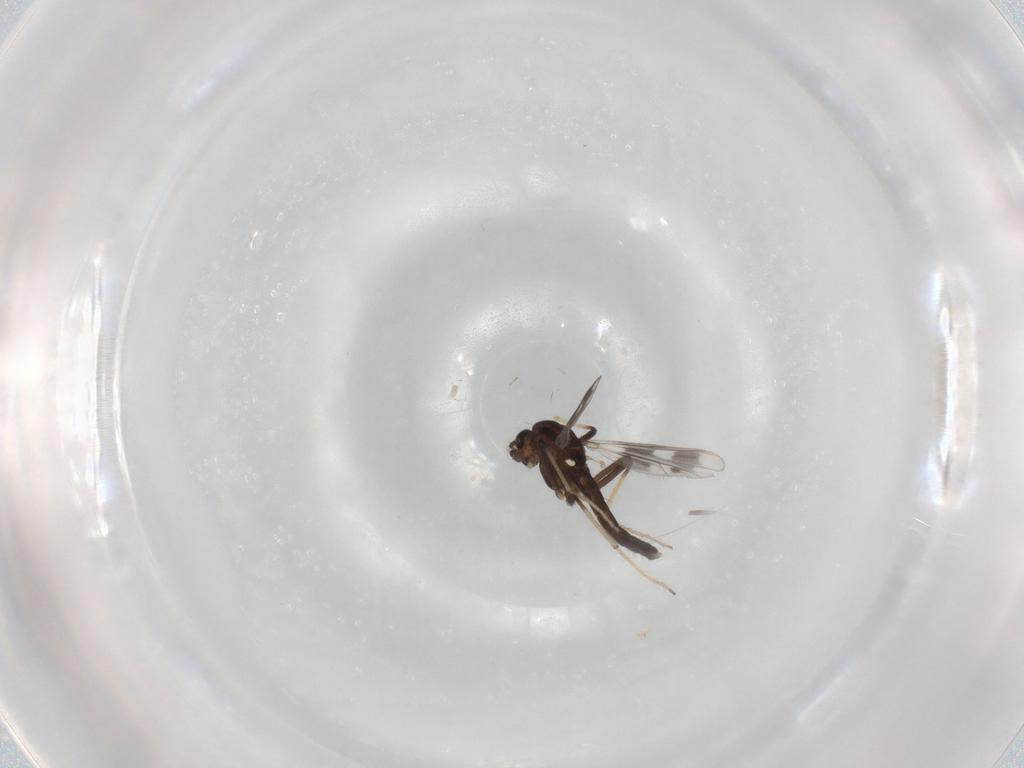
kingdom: Animalia
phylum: Arthropoda
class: Insecta
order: Diptera
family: Chironomidae
